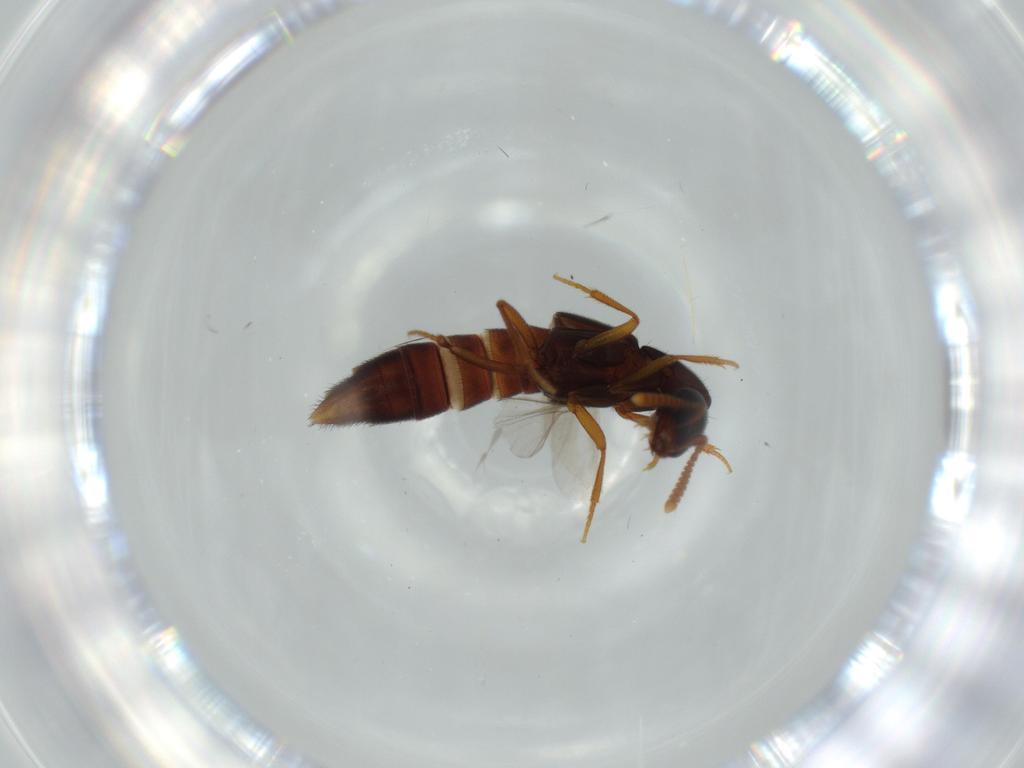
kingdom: Animalia
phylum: Arthropoda
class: Insecta
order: Coleoptera
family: Staphylinidae
